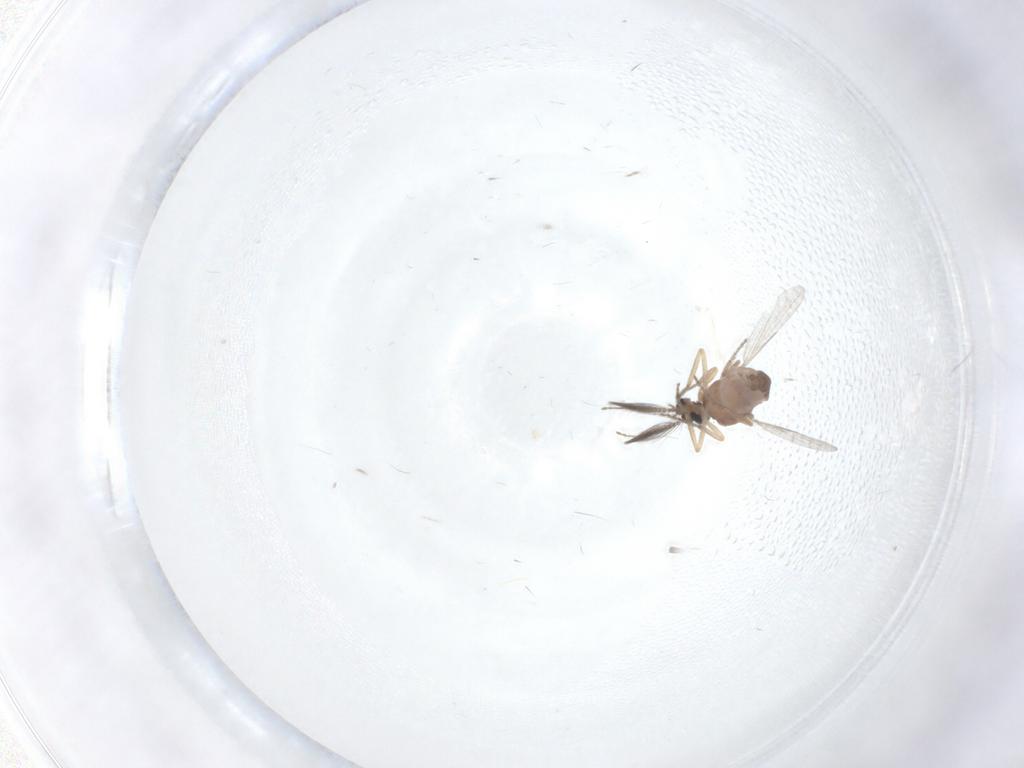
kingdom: Animalia
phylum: Arthropoda
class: Insecta
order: Diptera
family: Ceratopogonidae
